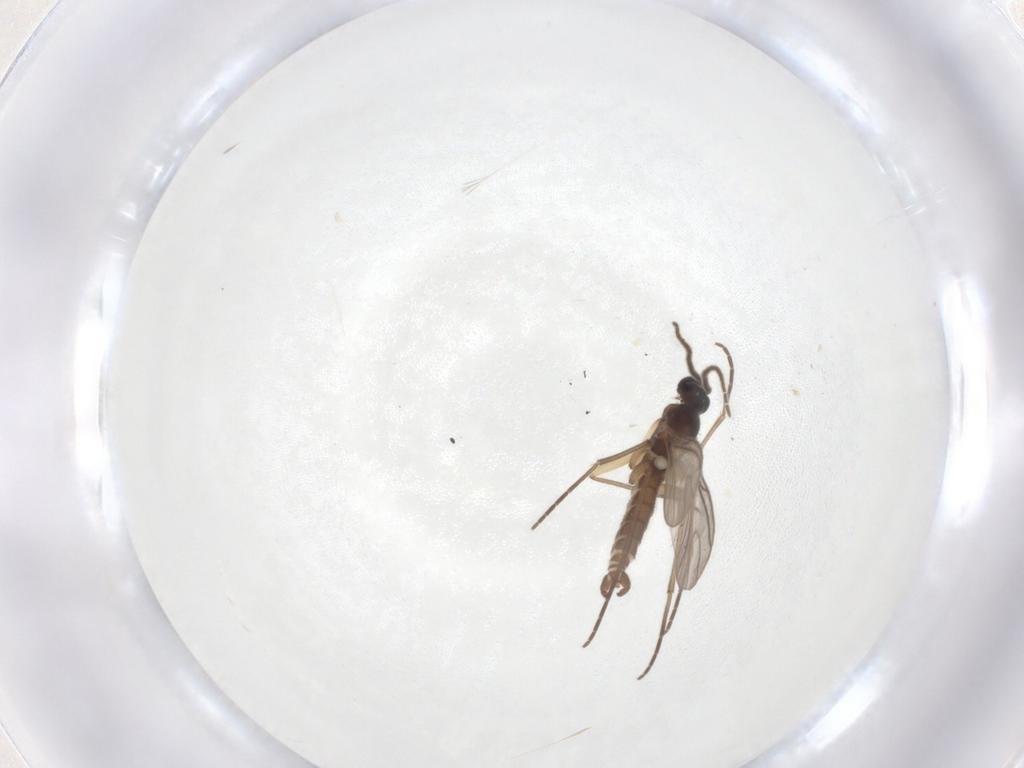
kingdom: Animalia
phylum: Arthropoda
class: Insecta
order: Diptera
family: Sciaridae
